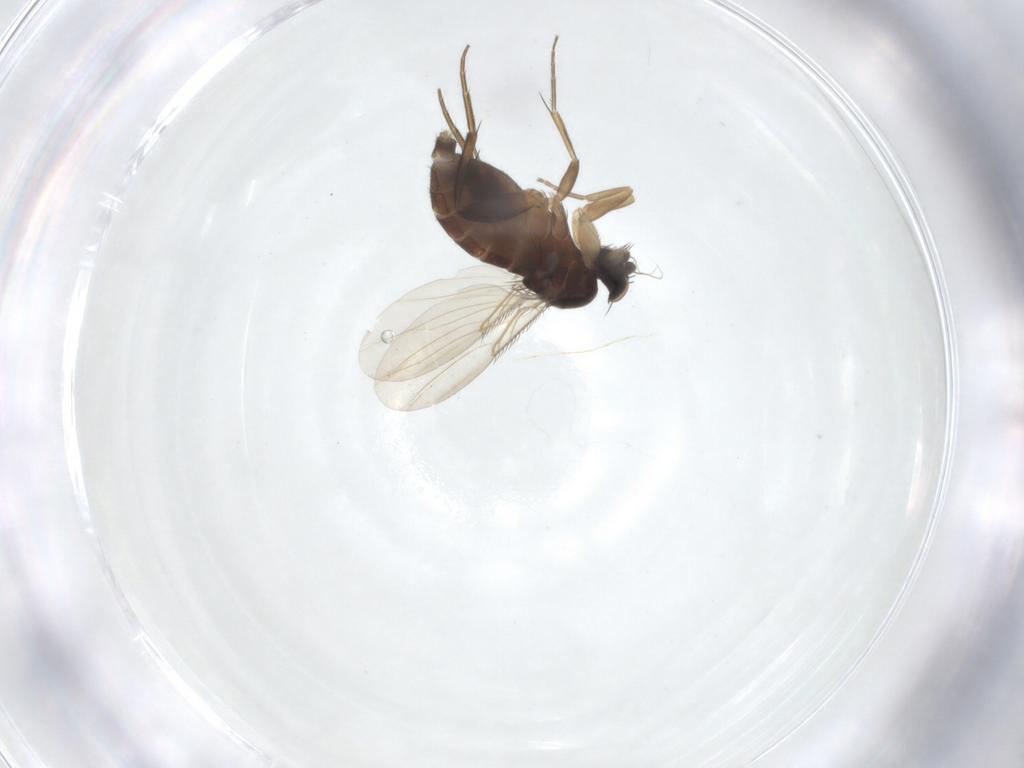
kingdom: Animalia
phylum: Arthropoda
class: Insecta
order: Diptera
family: Phoridae
